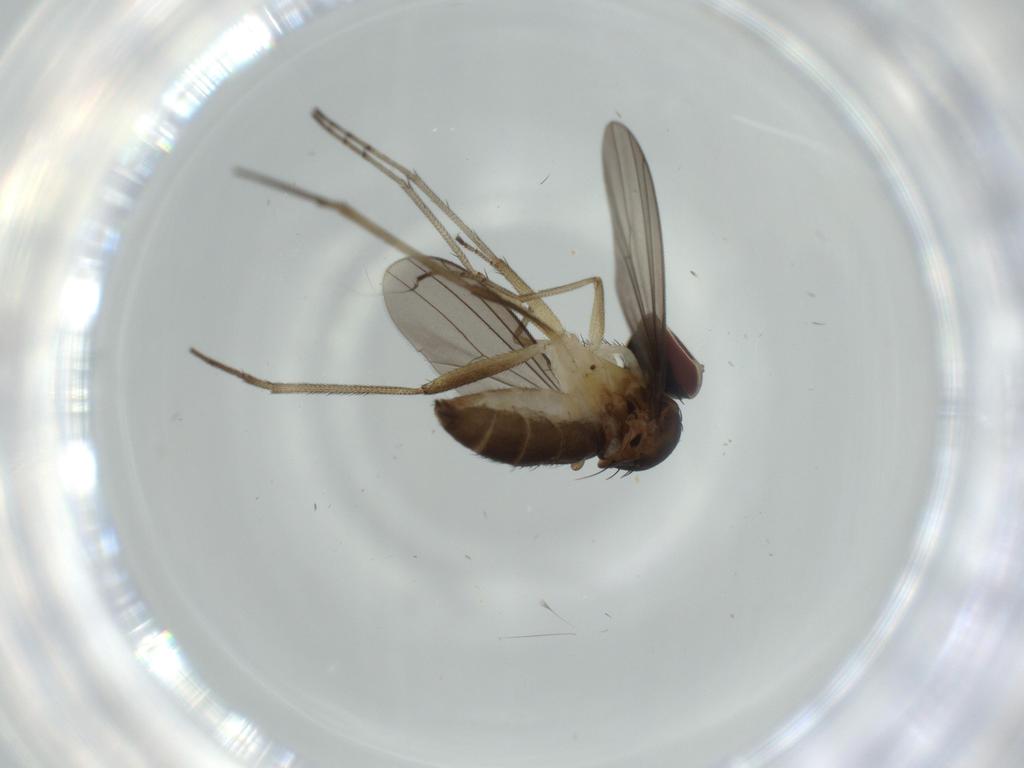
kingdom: Animalia
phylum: Arthropoda
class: Insecta
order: Diptera
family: Dolichopodidae
